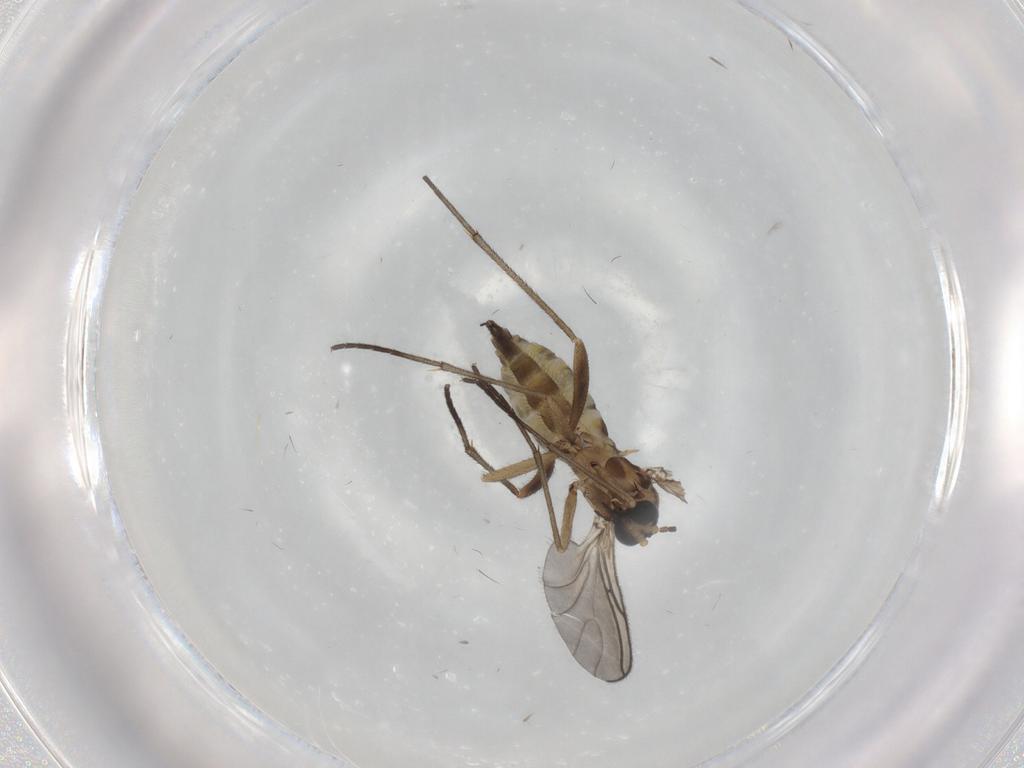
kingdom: Animalia
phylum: Arthropoda
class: Insecta
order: Diptera
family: Sciaridae
